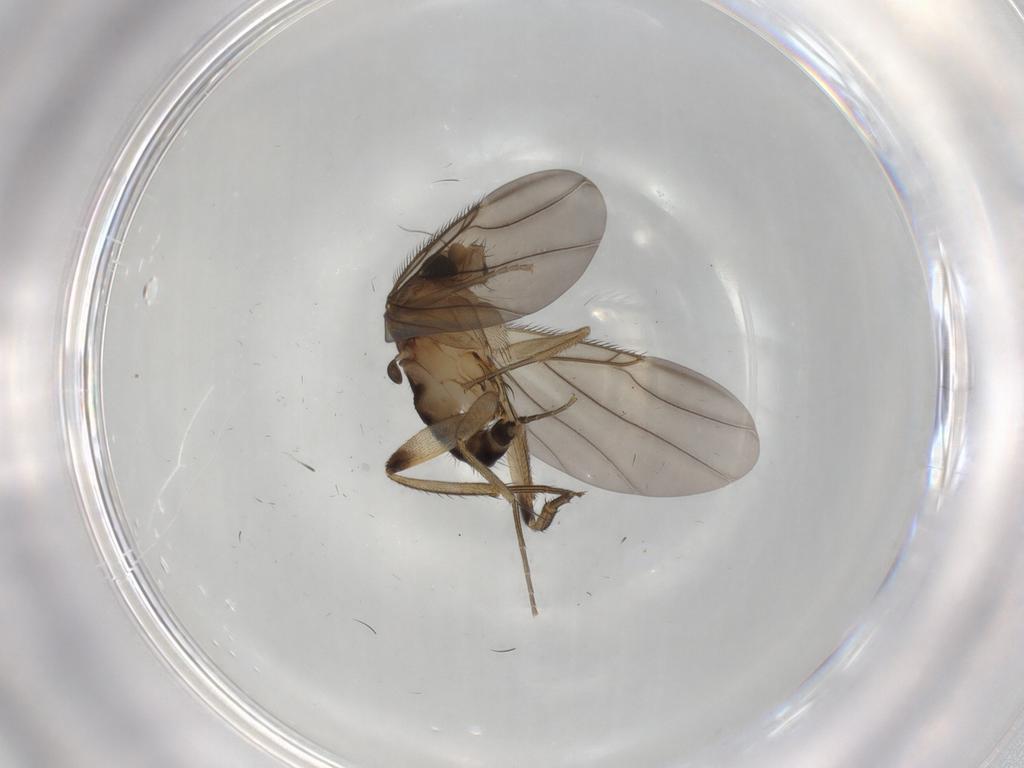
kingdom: Animalia
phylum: Arthropoda
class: Insecta
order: Diptera
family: Phoridae
